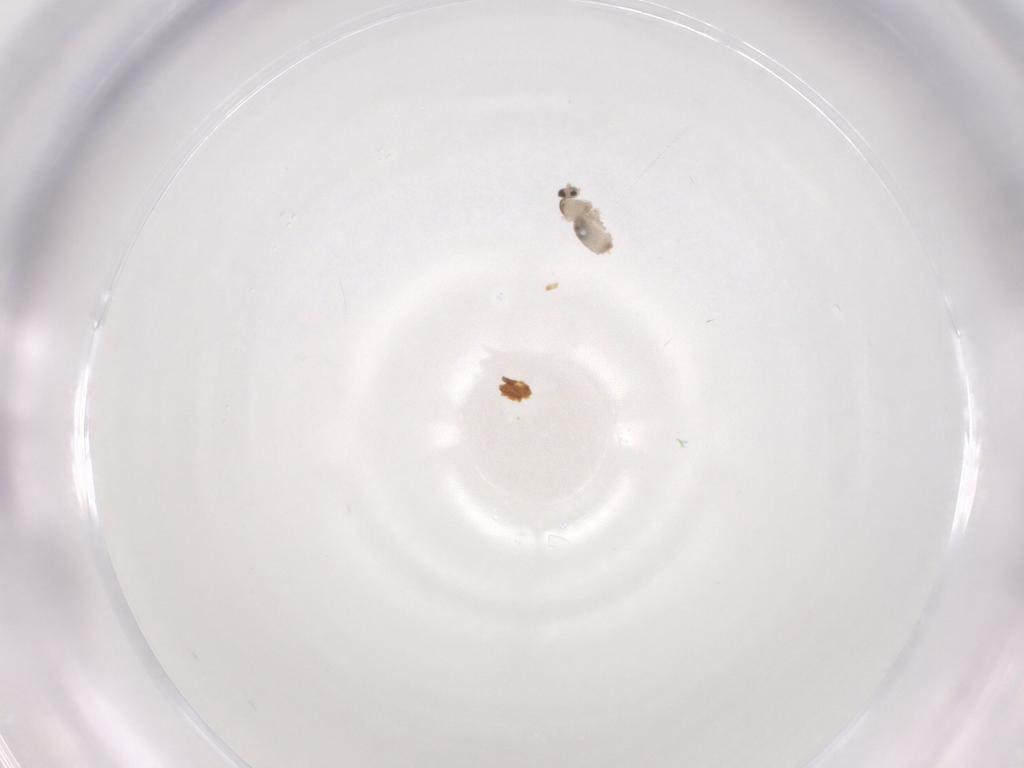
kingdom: Animalia
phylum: Arthropoda
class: Insecta
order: Diptera
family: Cecidomyiidae
